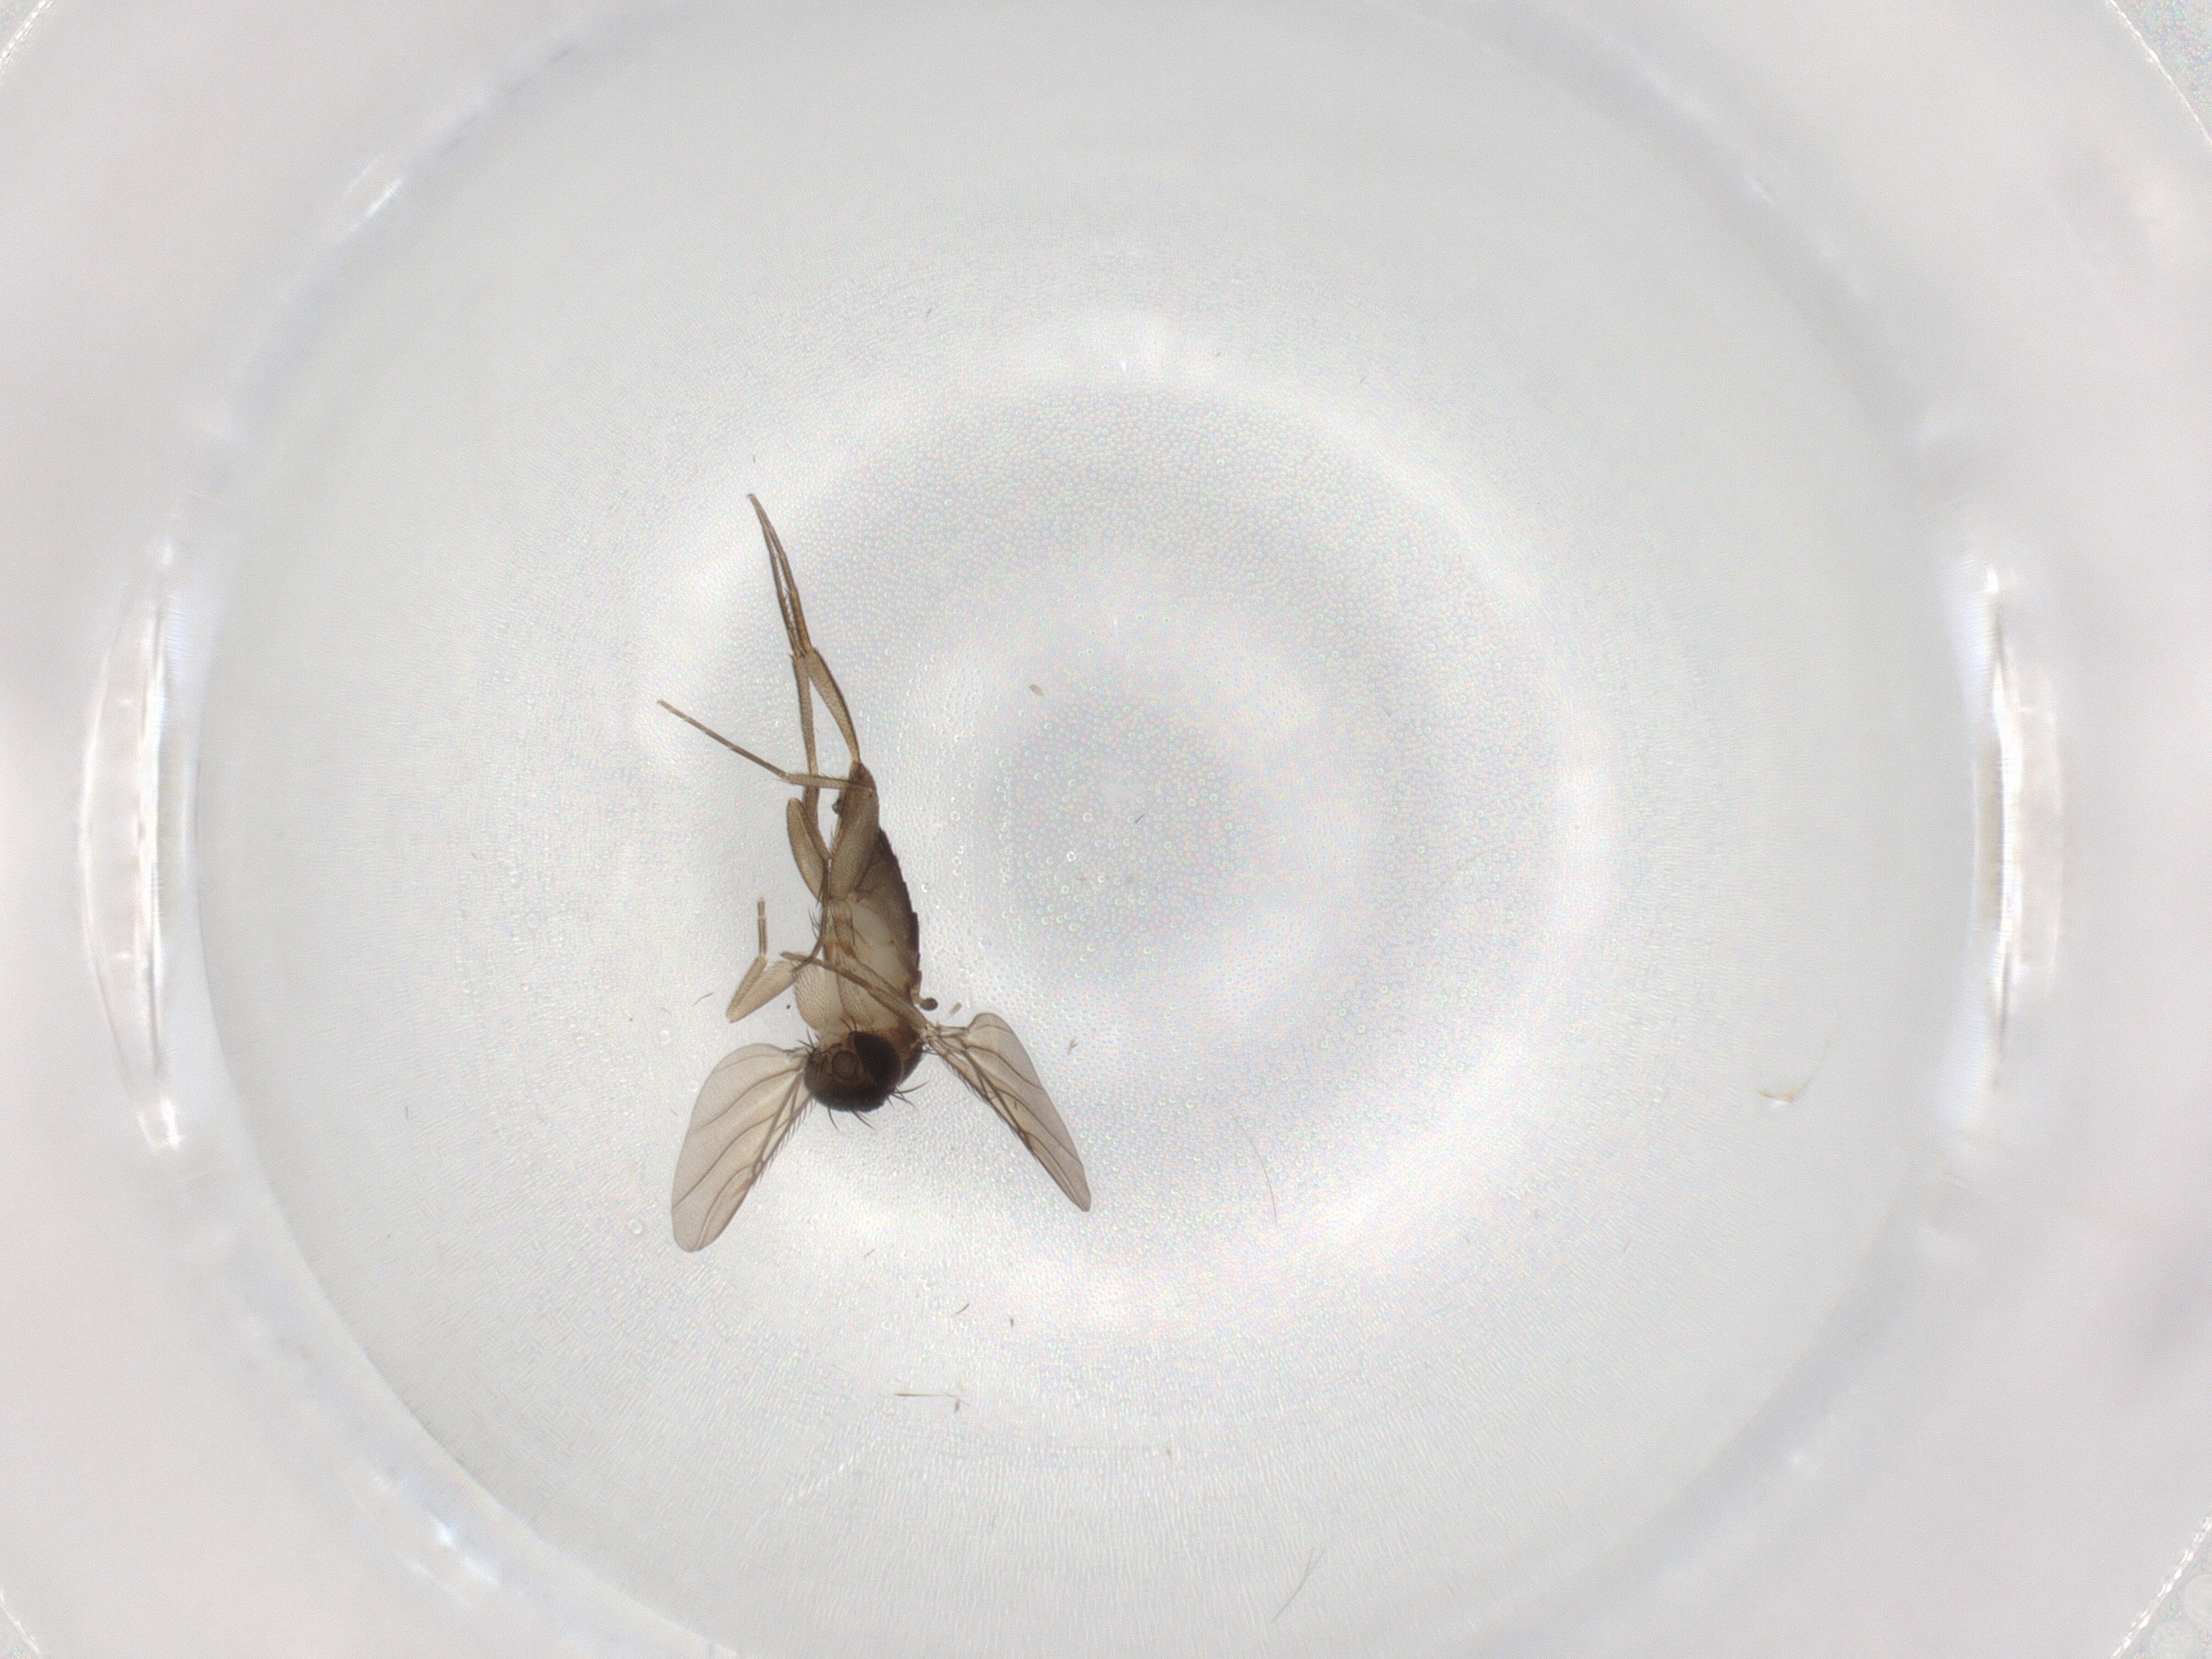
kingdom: Animalia
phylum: Arthropoda
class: Insecta
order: Diptera
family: Phoridae
